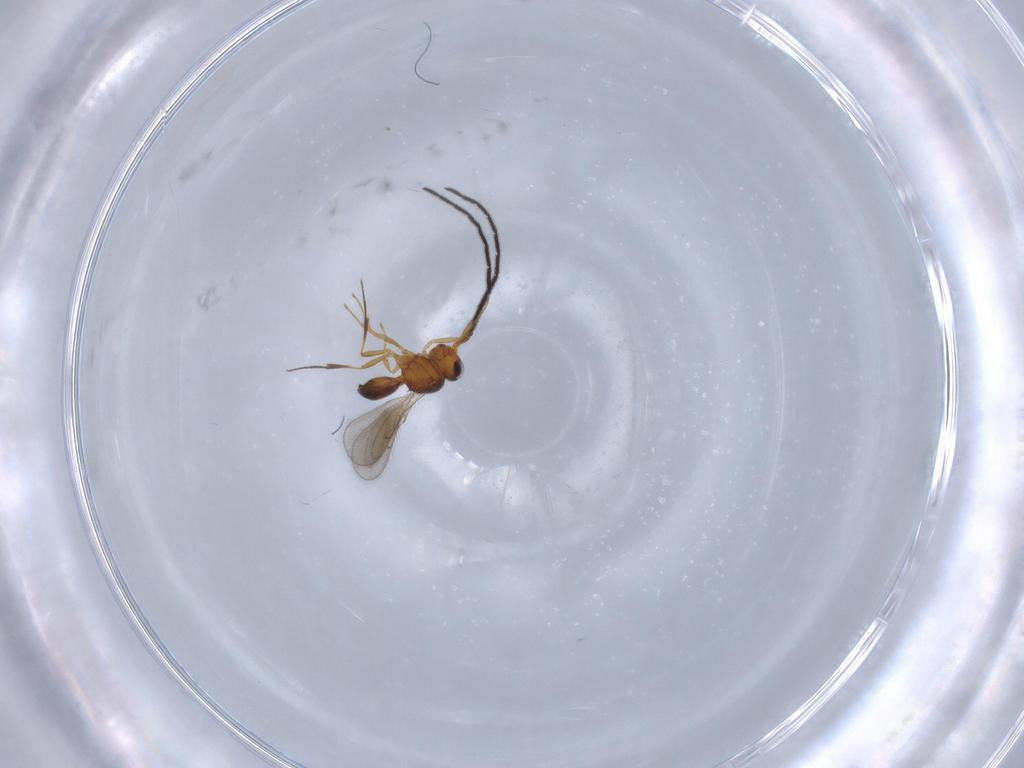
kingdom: Animalia
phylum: Arthropoda
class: Insecta
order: Hymenoptera
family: Scelionidae
